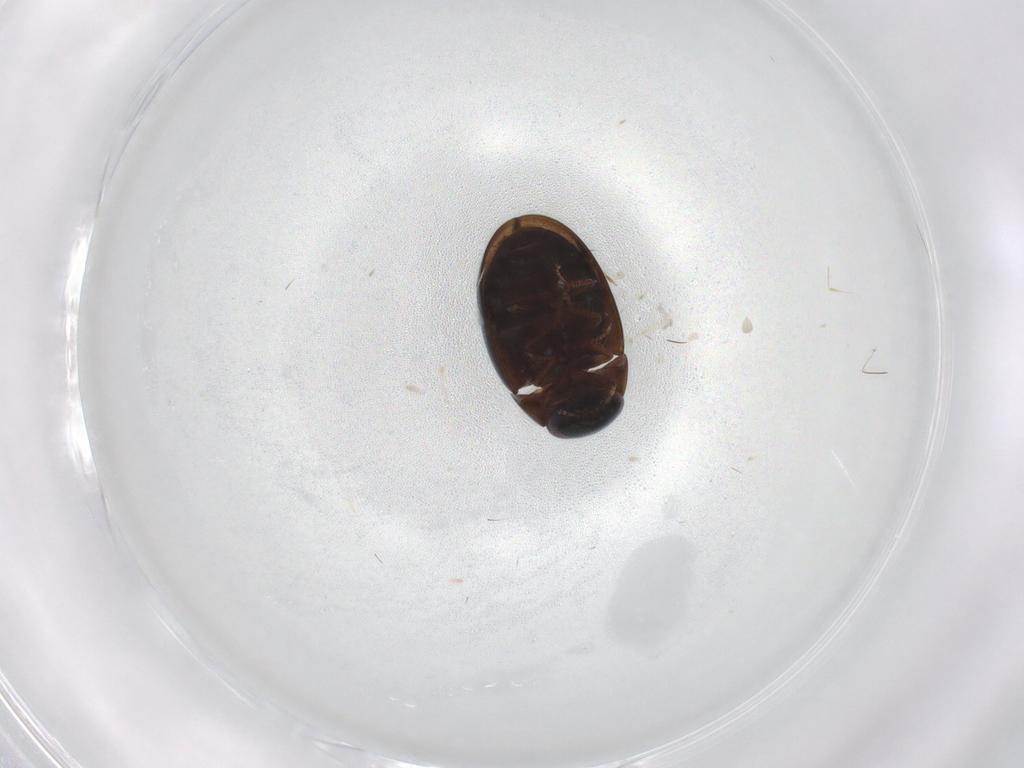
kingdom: Animalia
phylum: Arthropoda
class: Insecta
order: Coleoptera
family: Hydrophilidae
